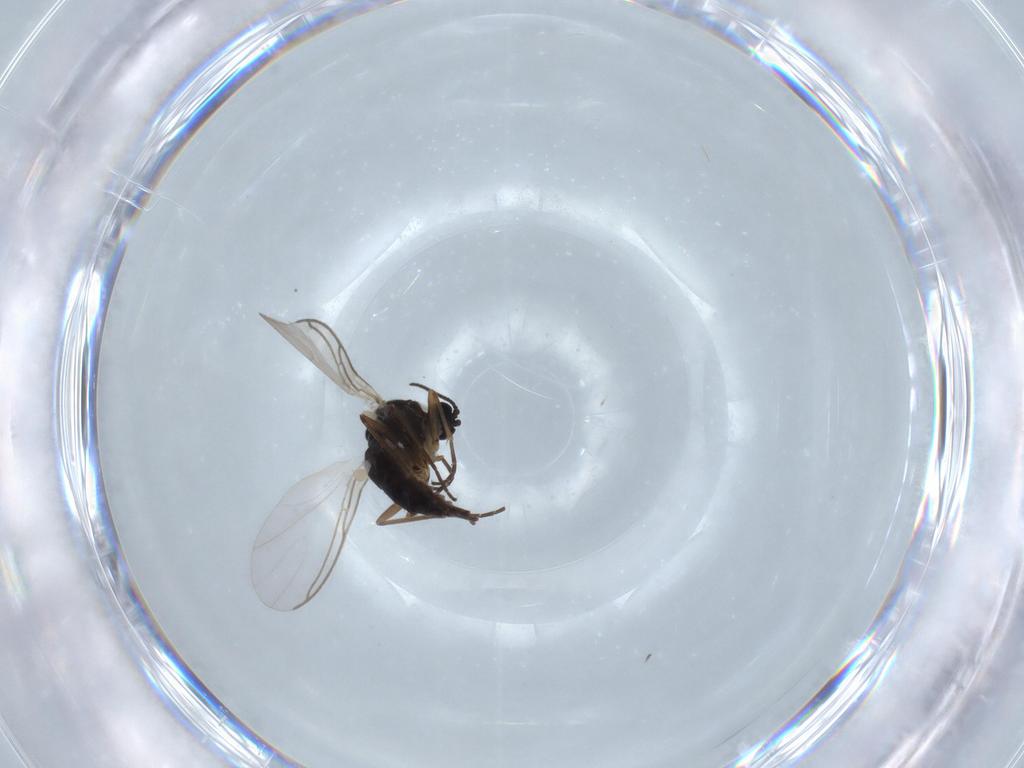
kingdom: Animalia
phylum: Arthropoda
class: Insecta
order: Diptera
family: Sciaridae
